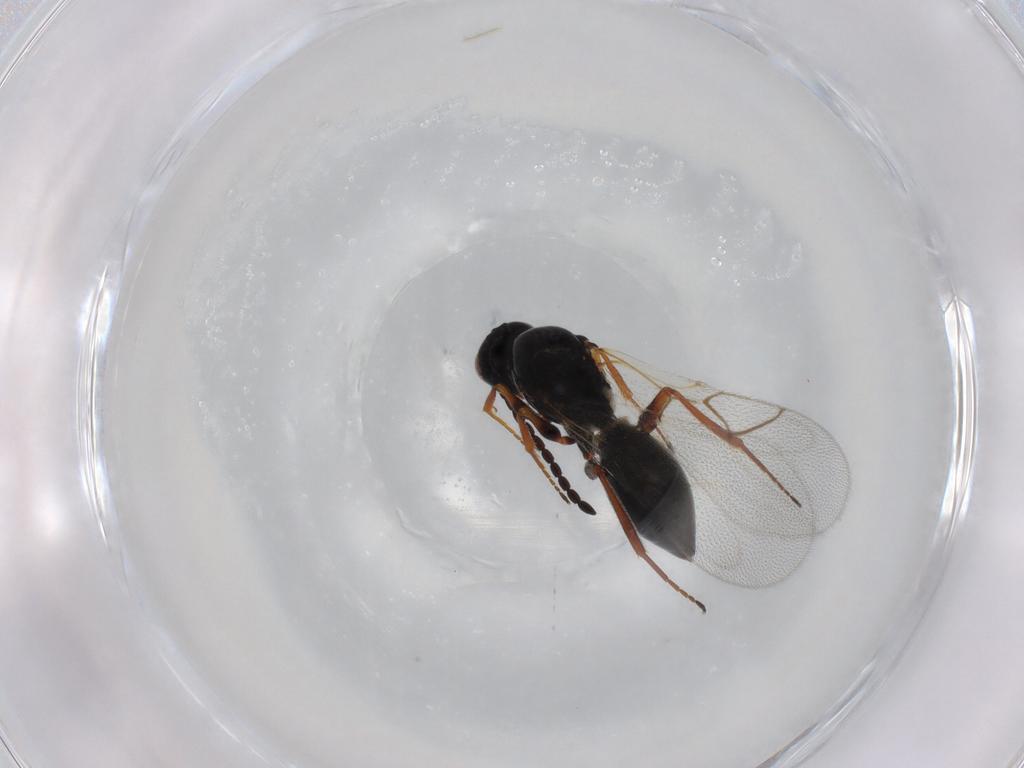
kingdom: Animalia
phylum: Arthropoda
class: Insecta
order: Hymenoptera
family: Figitidae
